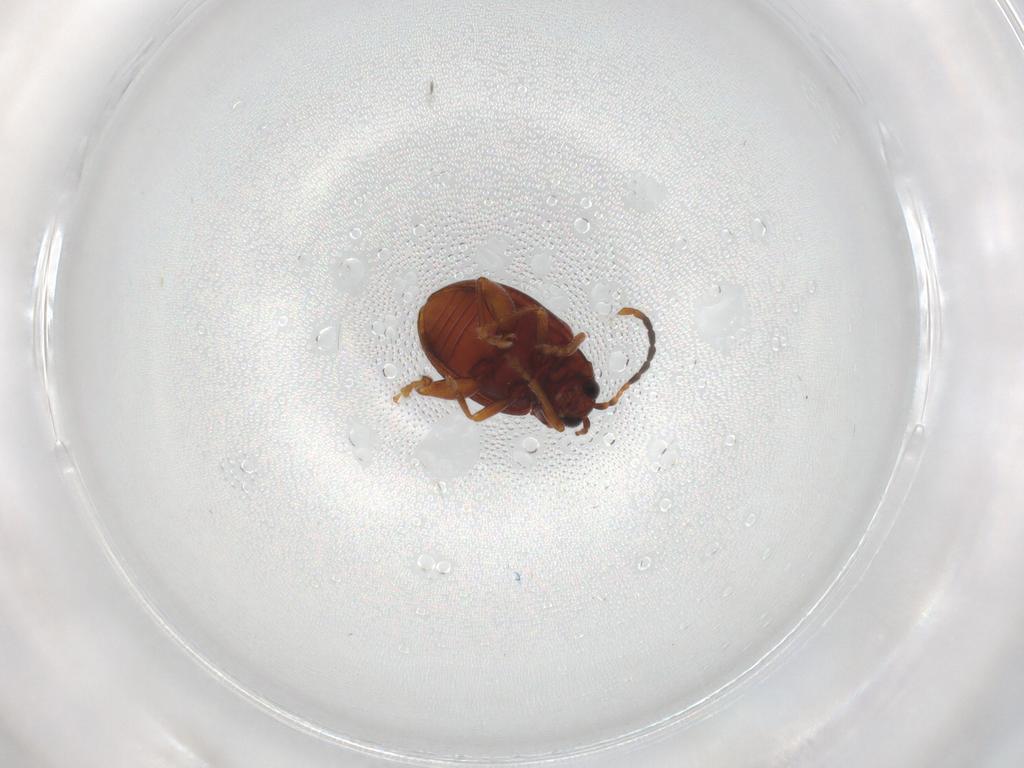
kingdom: Animalia
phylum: Arthropoda
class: Insecta
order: Coleoptera
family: Chrysomelidae
